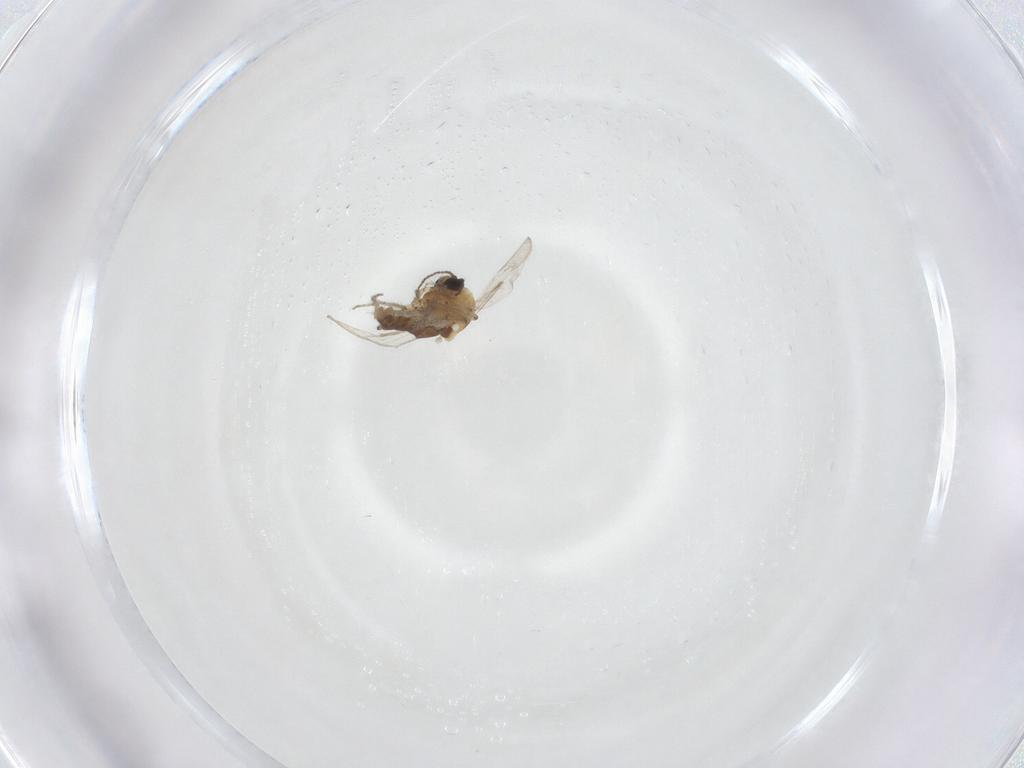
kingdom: Animalia
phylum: Arthropoda
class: Insecta
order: Diptera
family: Ceratopogonidae
